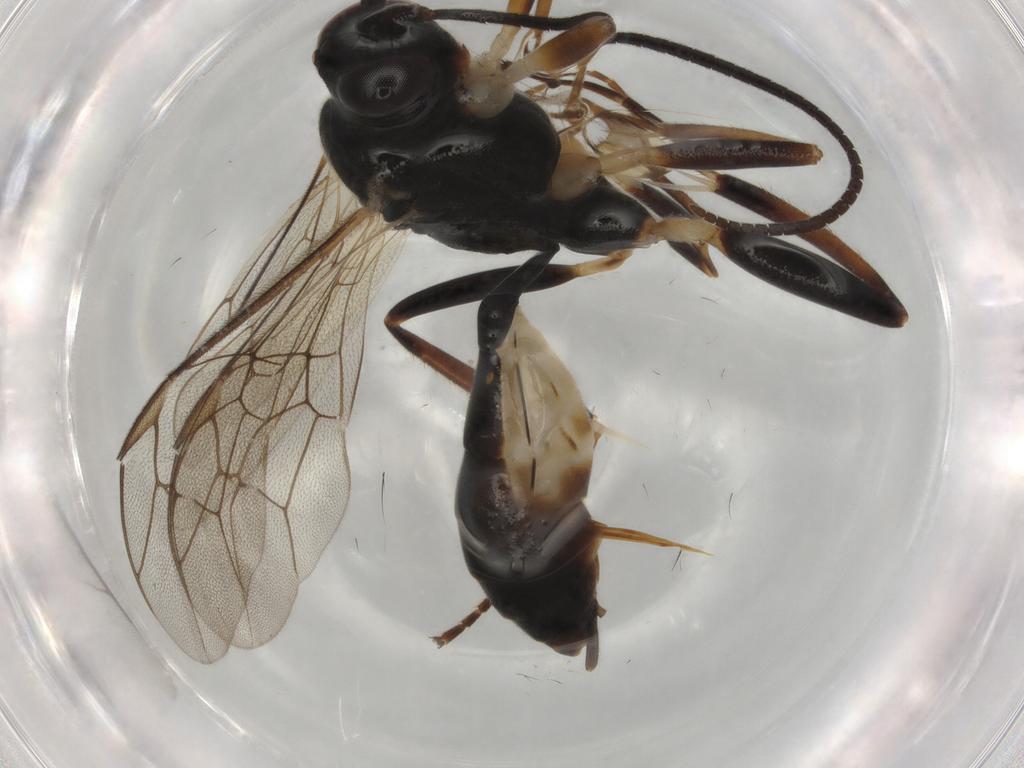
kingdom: Animalia
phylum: Arthropoda
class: Insecta
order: Hymenoptera
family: Ichneumonidae
